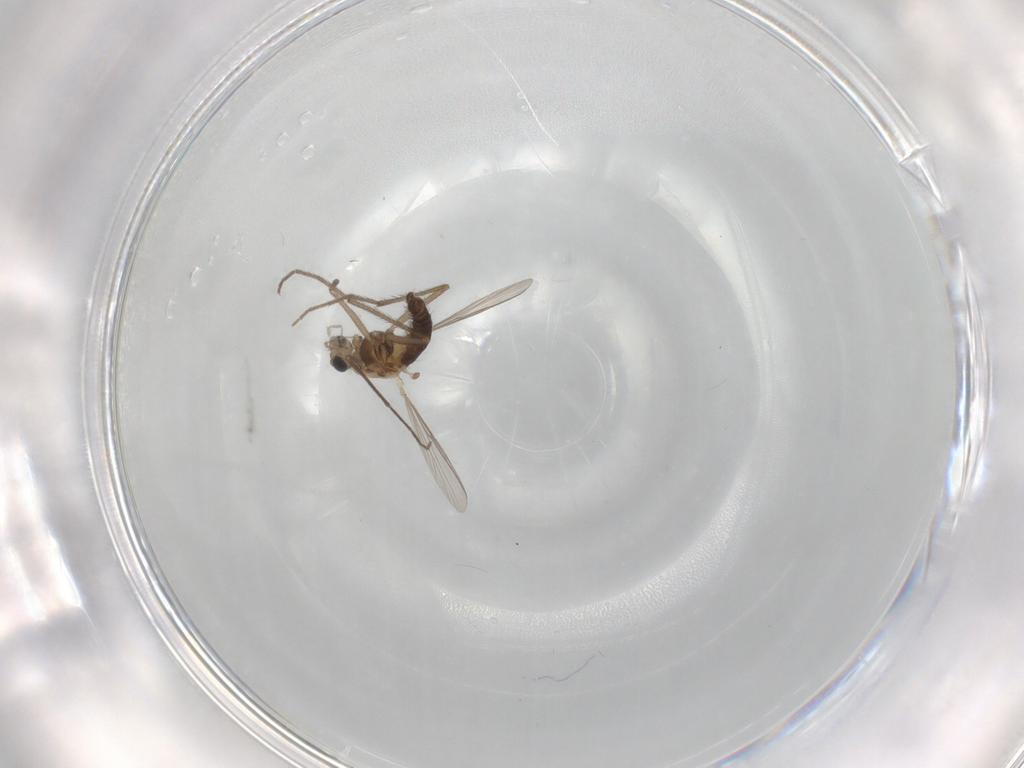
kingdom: Animalia
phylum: Arthropoda
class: Insecta
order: Diptera
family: Chironomidae
